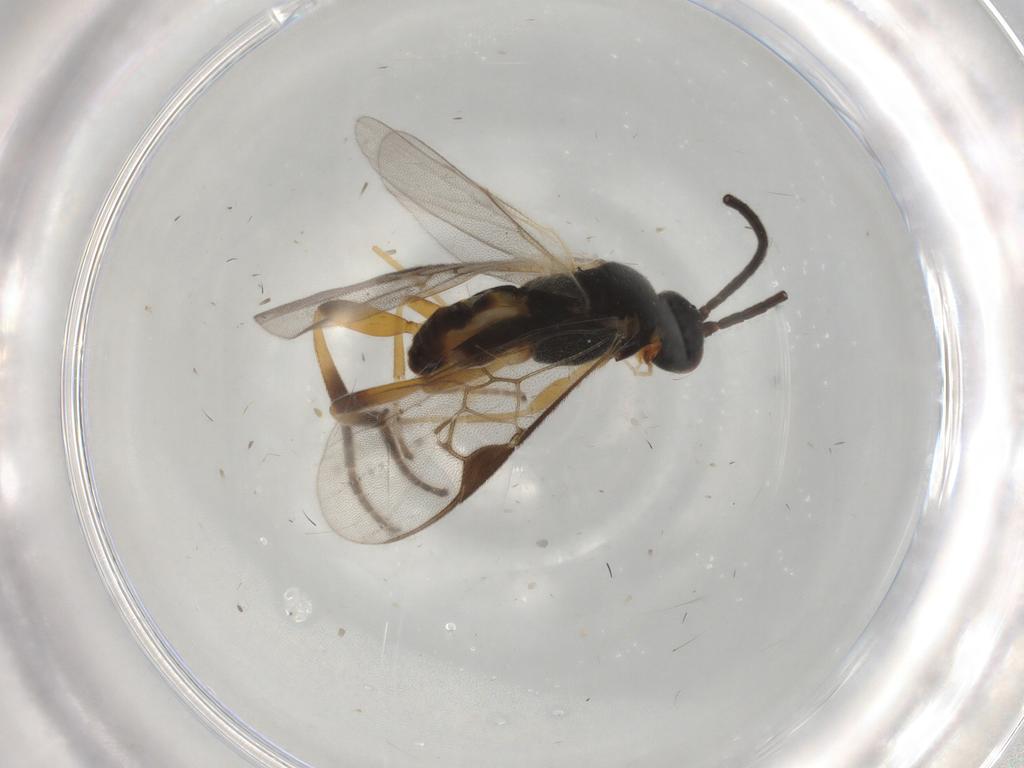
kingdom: Animalia
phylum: Arthropoda
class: Insecta
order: Hymenoptera
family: Braconidae
